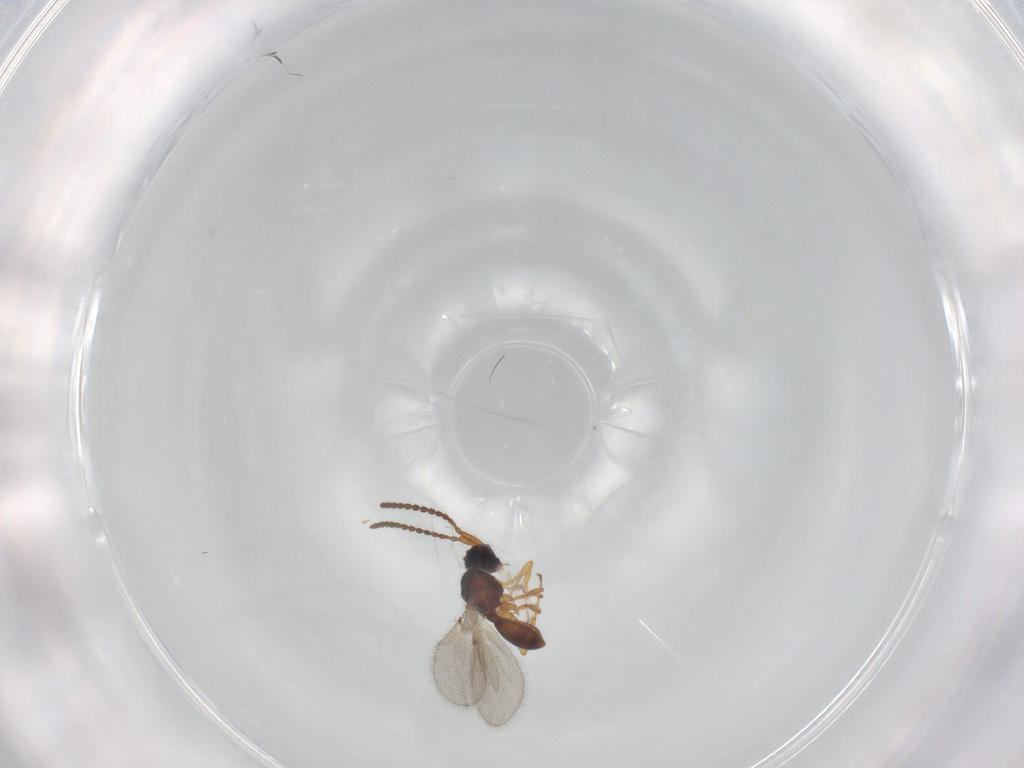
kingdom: Animalia
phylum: Arthropoda
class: Insecta
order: Hymenoptera
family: Diapriidae
